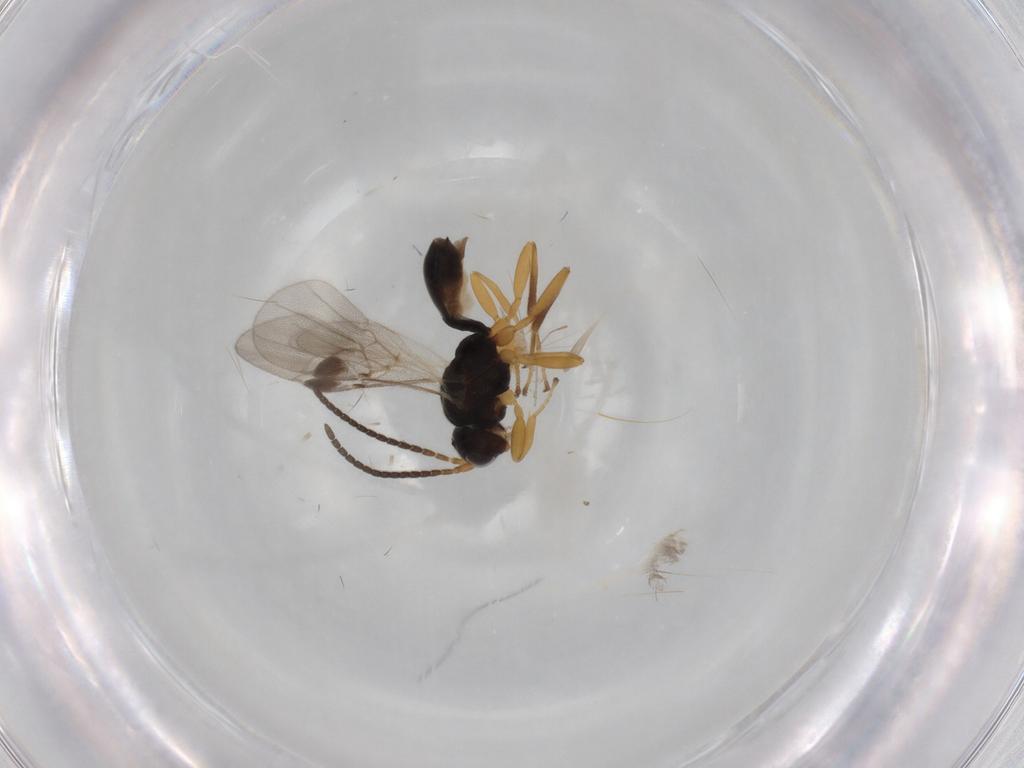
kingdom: Animalia
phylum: Arthropoda
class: Insecta
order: Hymenoptera
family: Braconidae
